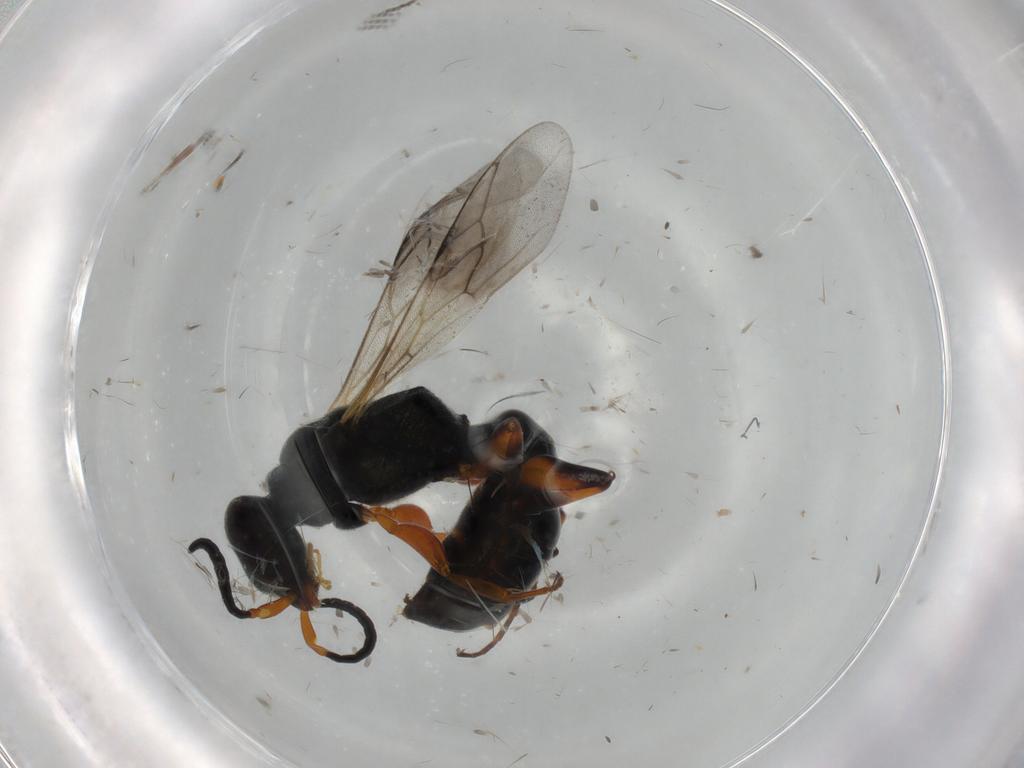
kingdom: Animalia
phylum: Arthropoda
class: Insecta
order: Hymenoptera
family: Crabronidae
